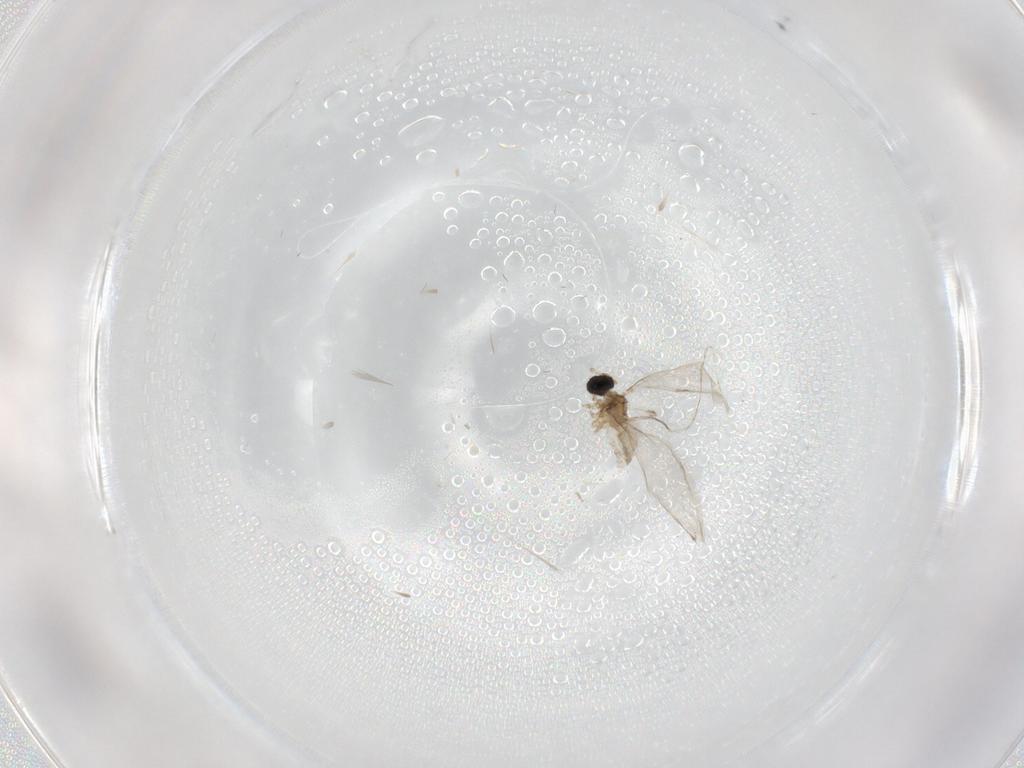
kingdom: Animalia
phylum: Arthropoda
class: Insecta
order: Diptera
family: Cecidomyiidae
